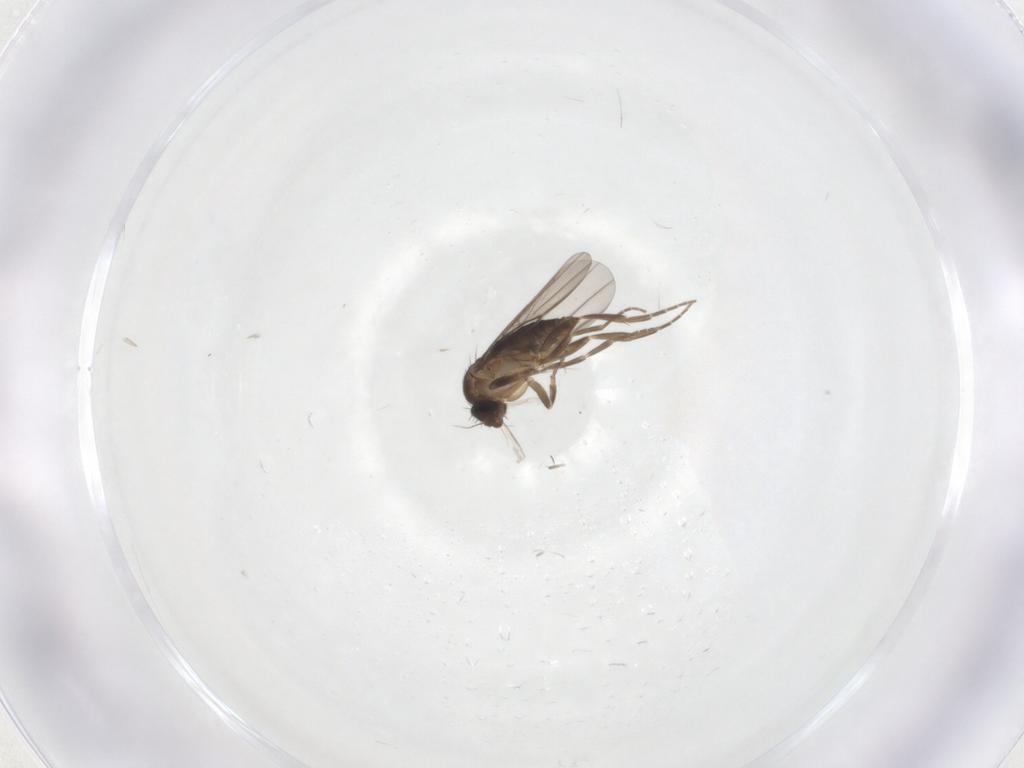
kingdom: Animalia
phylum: Arthropoda
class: Insecta
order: Diptera
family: Phoridae
